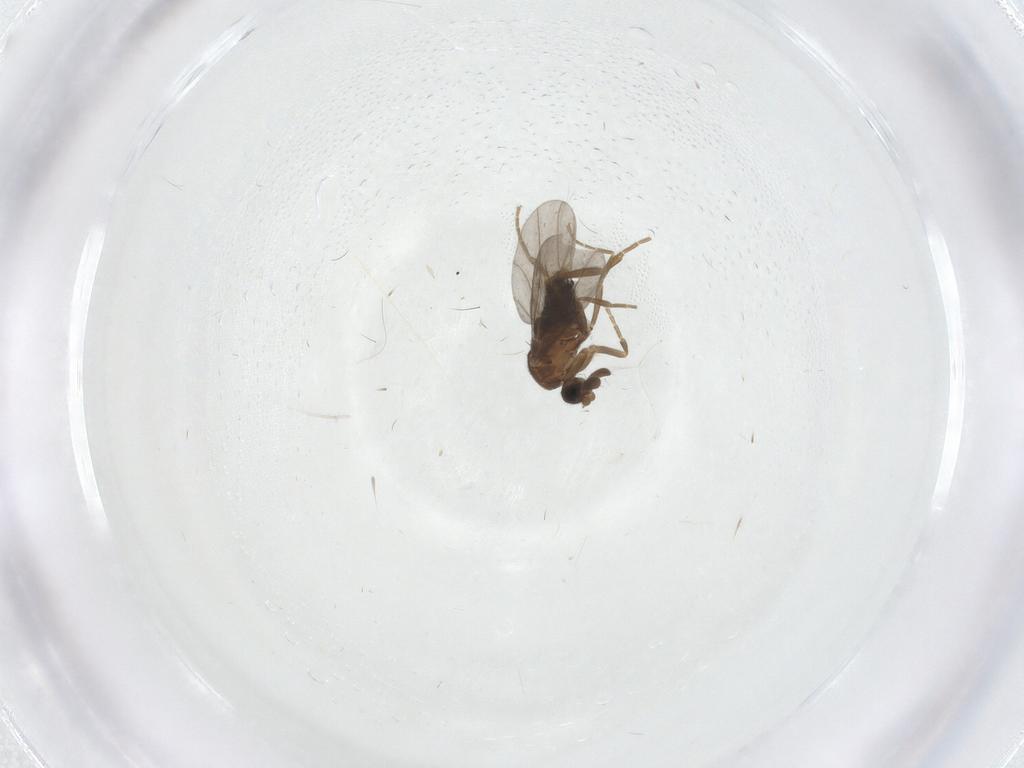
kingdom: Animalia
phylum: Arthropoda
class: Insecta
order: Diptera
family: Phoridae
